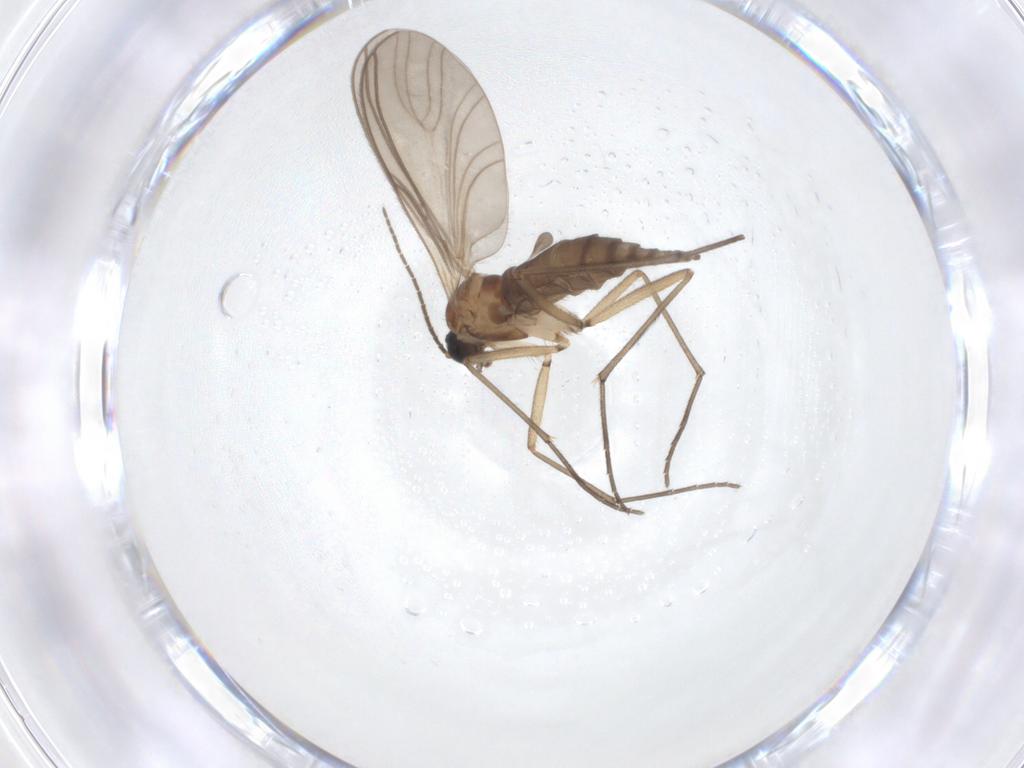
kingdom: Animalia
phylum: Arthropoda
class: Insecta
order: Diptera
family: Sciaridae
